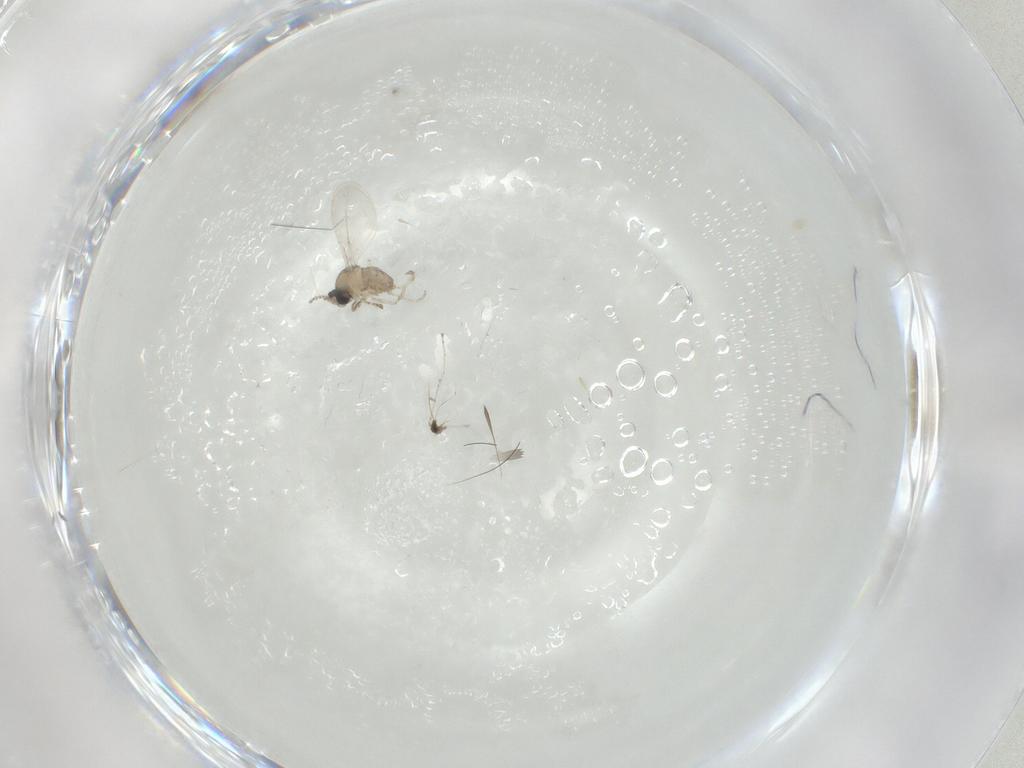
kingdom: Animalia
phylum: Arthropoda
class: Insecta
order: Diptera
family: Cecidomyiidae
